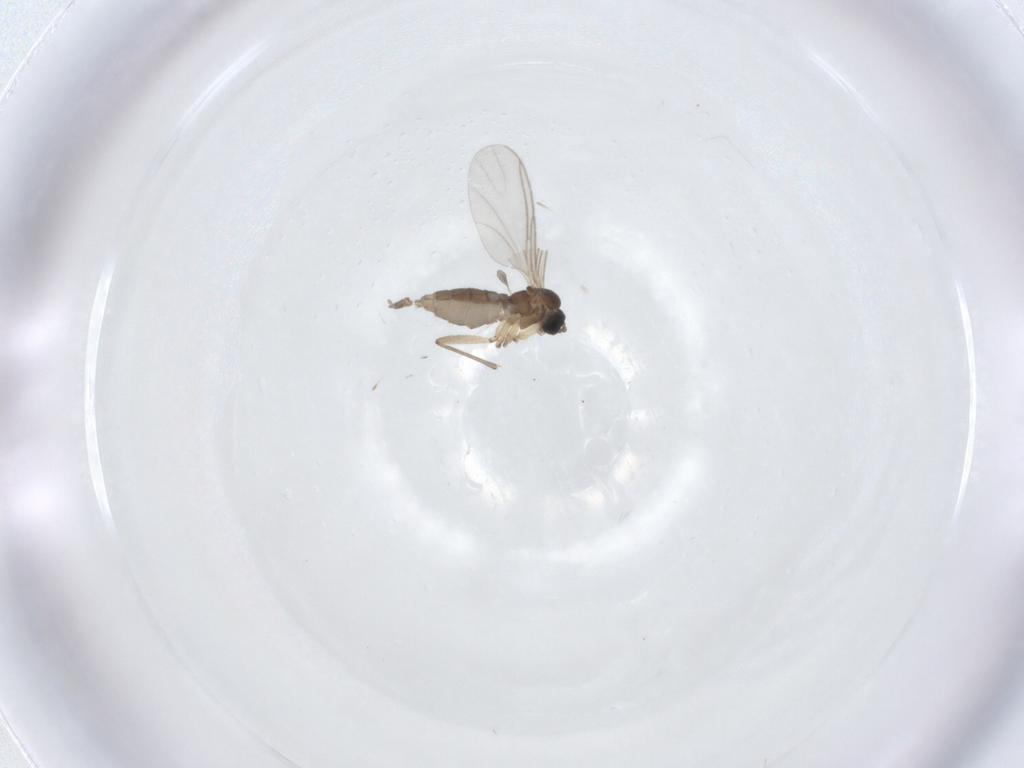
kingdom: Animalia
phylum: Arthropoda
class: Insecta
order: Diptera
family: Sciaridae
